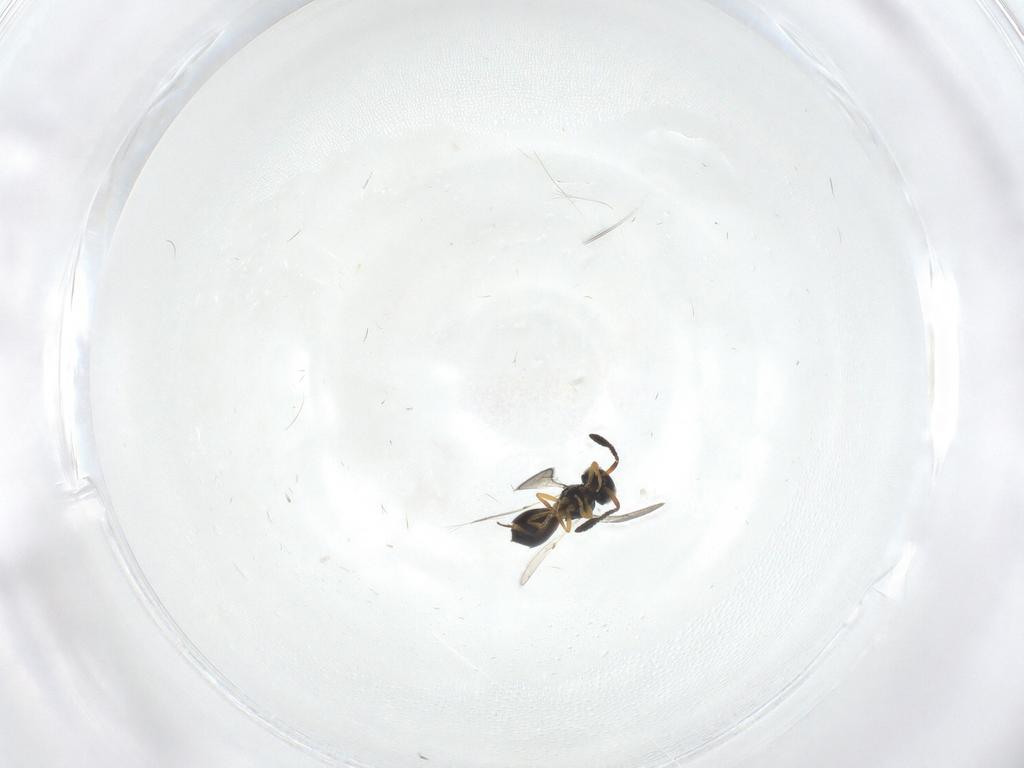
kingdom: Animalia
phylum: Arthropoda
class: Insecta
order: Hymenoptera
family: Scelionidae
